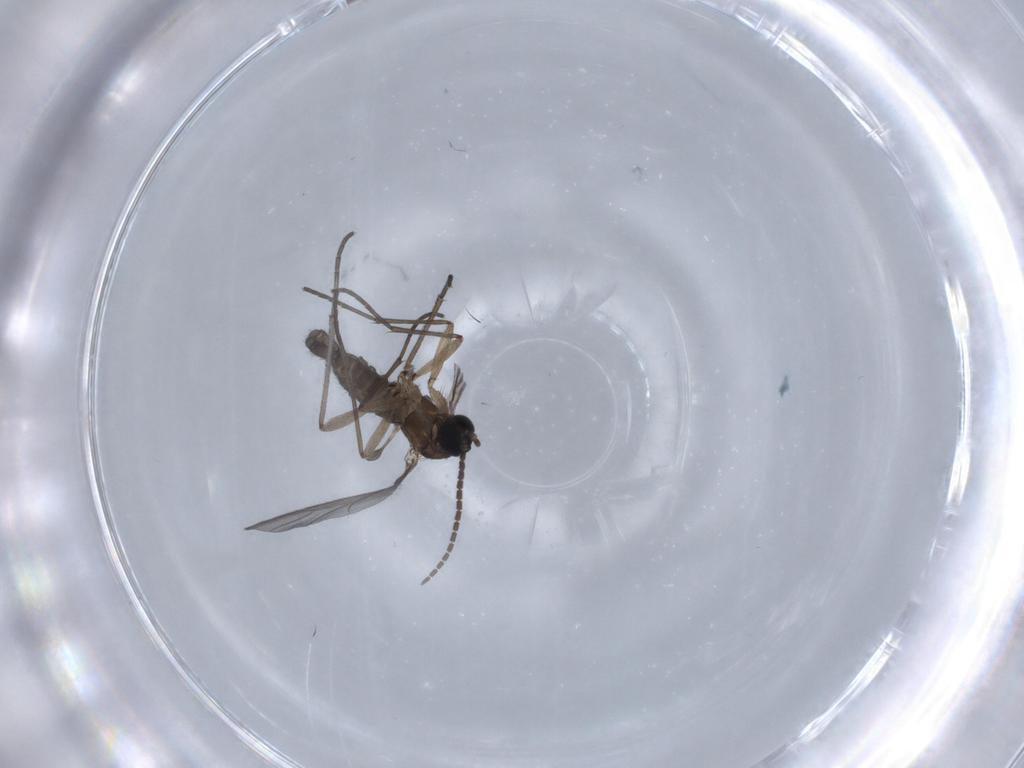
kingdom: Animalia
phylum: Arthropoda
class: Insecta
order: Diptera
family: Sciaridae
